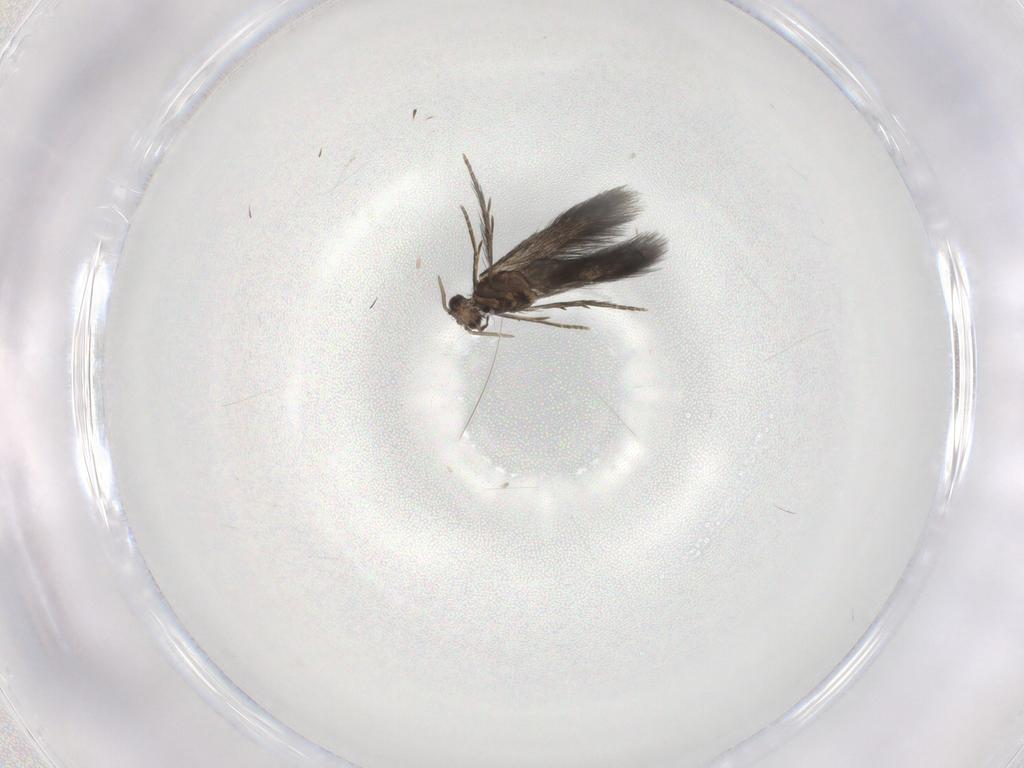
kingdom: Animalia
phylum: Arthropoda
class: Insecta
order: Trichoptera
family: Hydroptilidae
